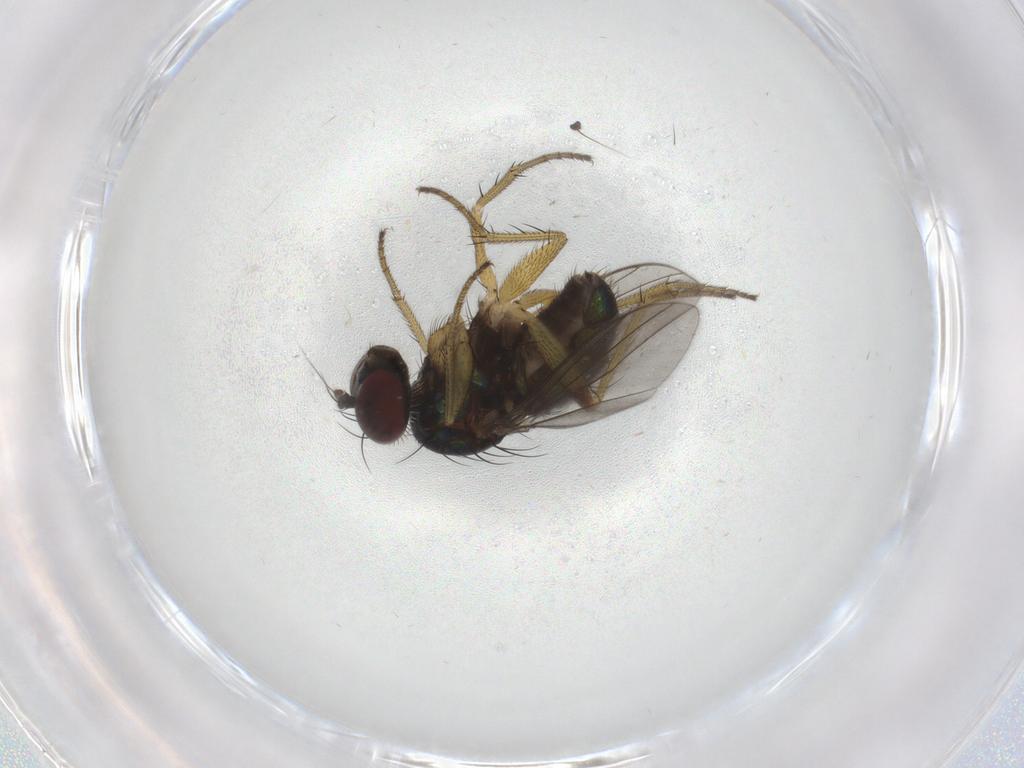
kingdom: Animalia
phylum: Arthropoda
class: Insecta
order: Diptera
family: Dolichopodidae
